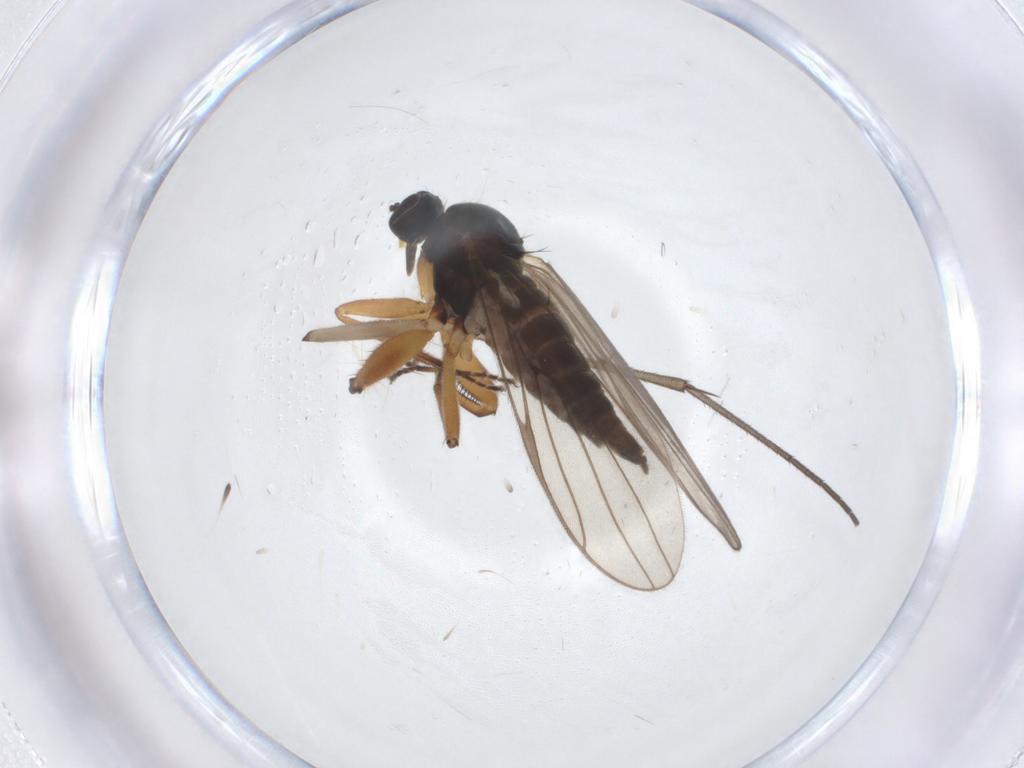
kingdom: Animalia
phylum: Arthropoda
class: Insecta
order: Diptera
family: Hybotidae
